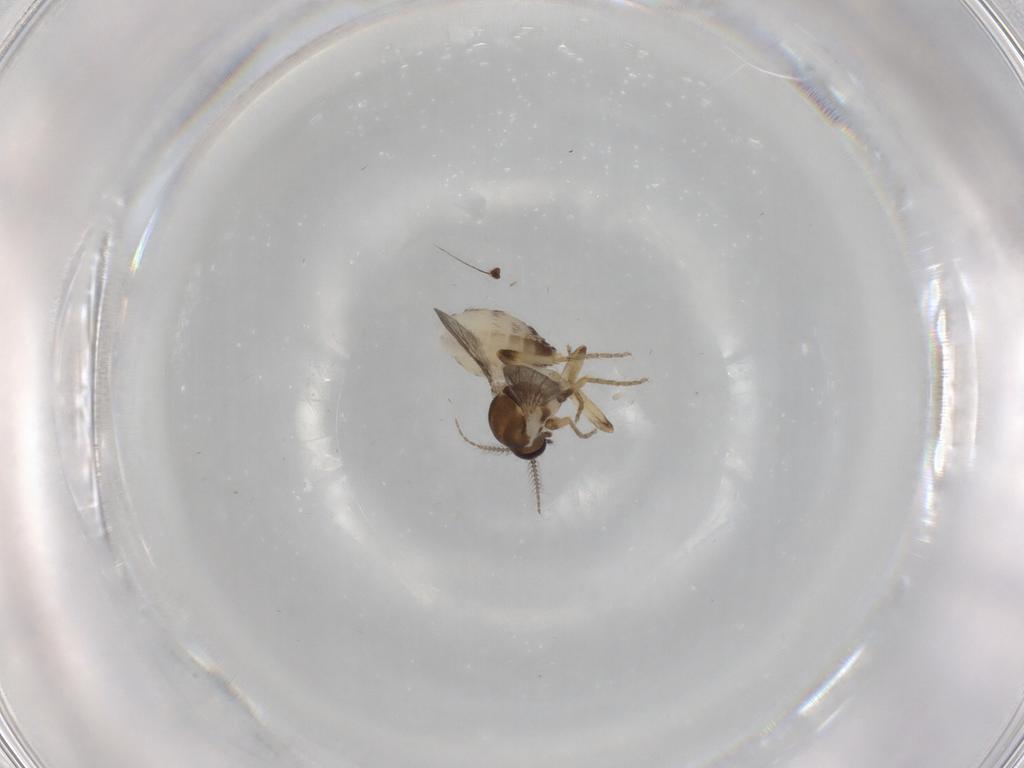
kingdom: Animalia
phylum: Arthropoda
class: Insecta
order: Diptera
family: Ceratopogonidae
